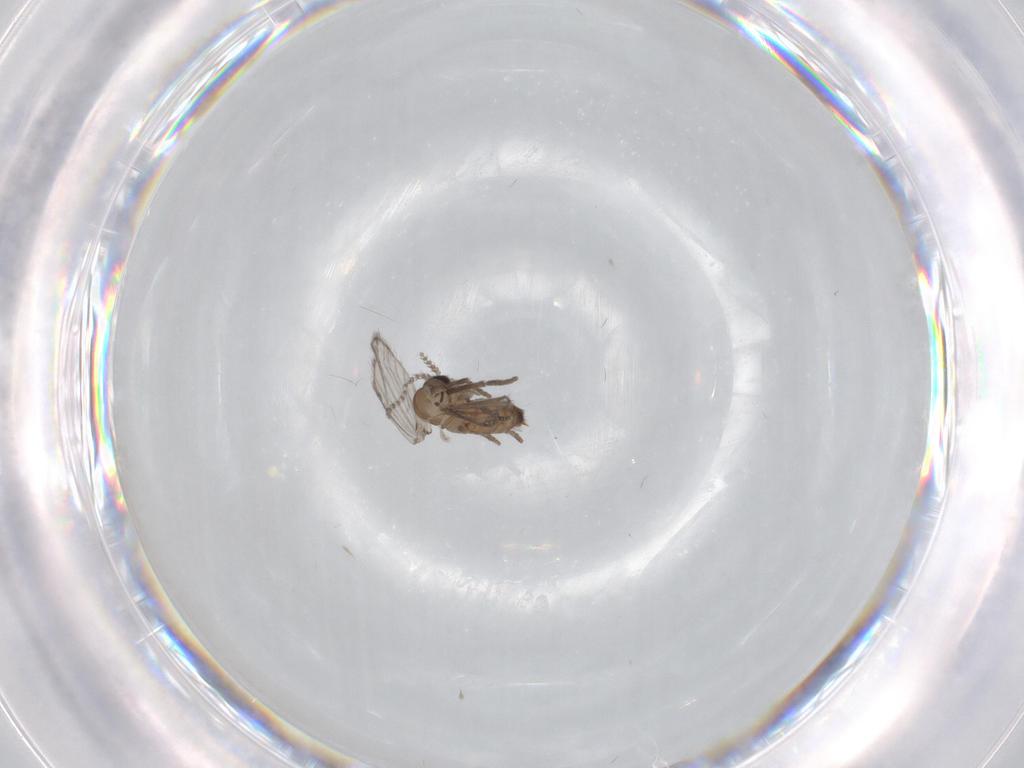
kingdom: Animalia
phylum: Arthropoda
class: Insecta
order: Diptera
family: Psychodidae
